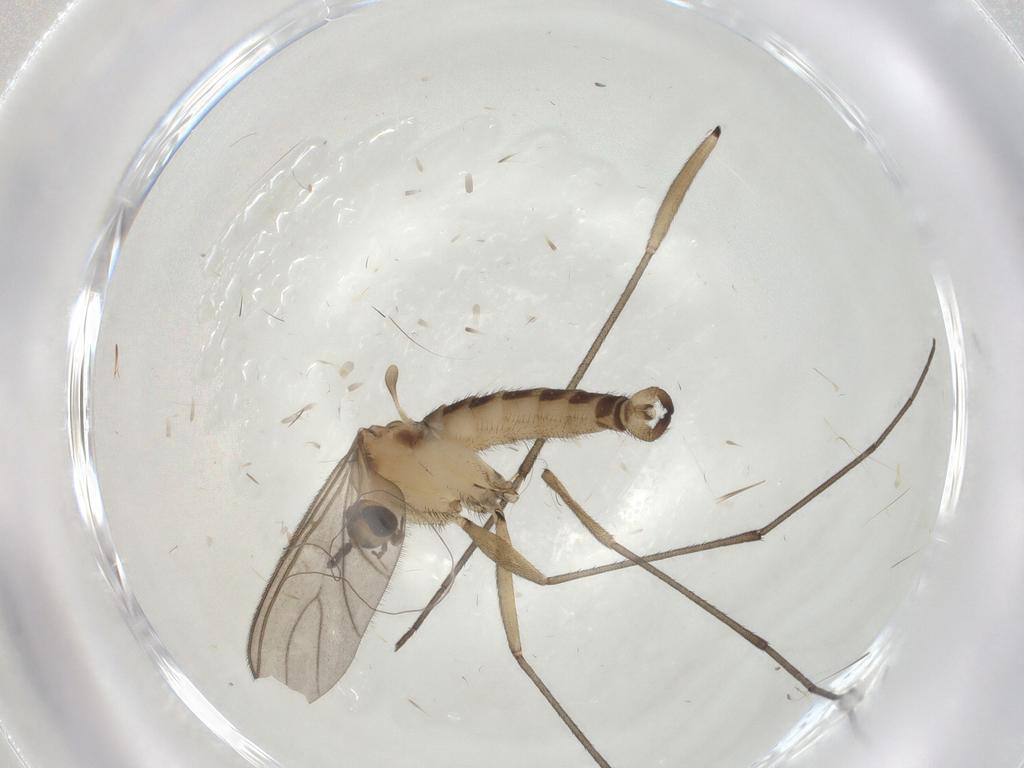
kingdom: Animalia
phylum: Arthropoda
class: Insecta
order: Diptera
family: Sciaridae
